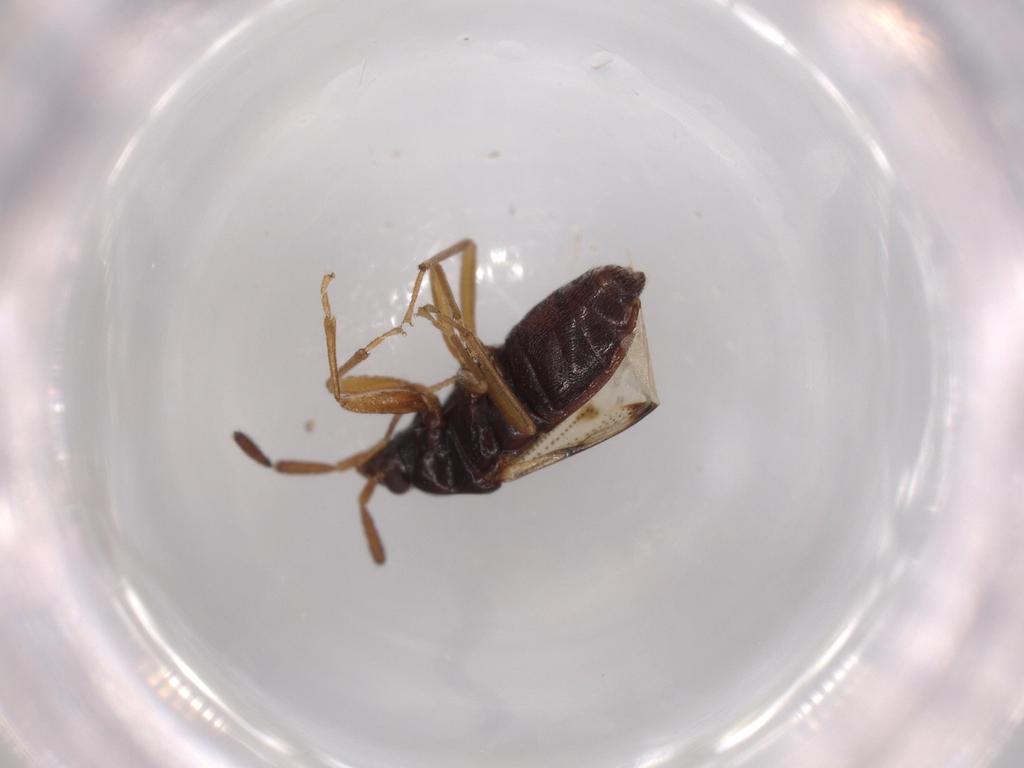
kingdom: Animalia
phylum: Arthropoda
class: Insecta
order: Hemiptera
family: Rhyparochromidae
